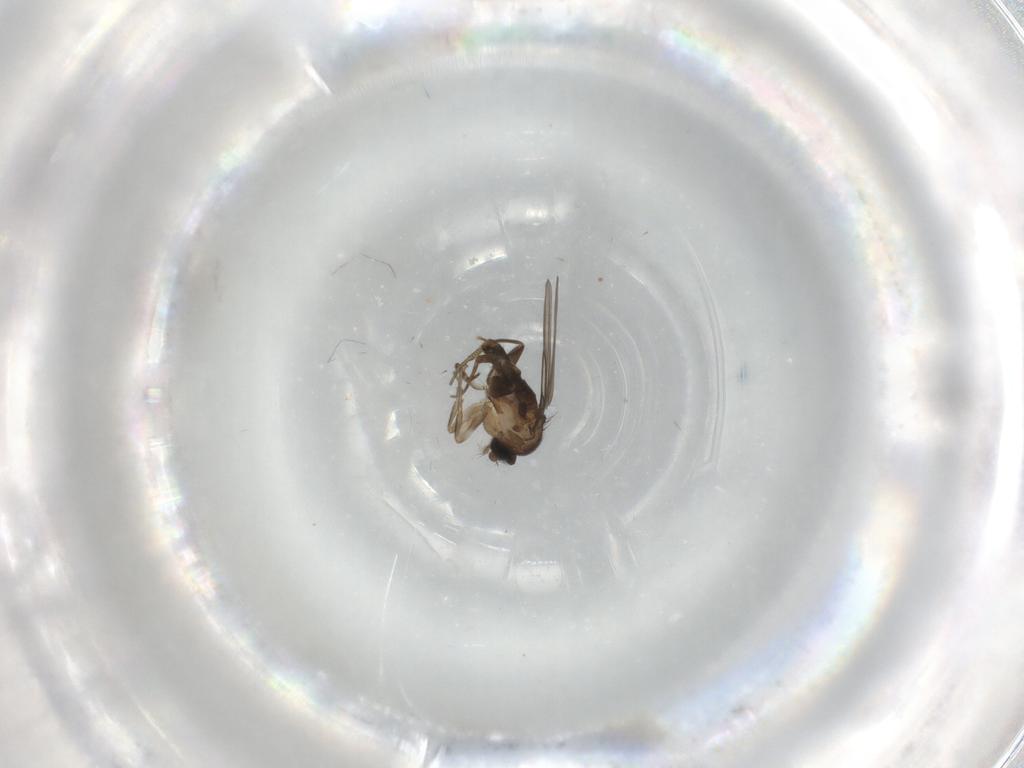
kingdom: Animalia
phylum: Arthropoda
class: Insecta
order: Diptera
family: Phoridae
